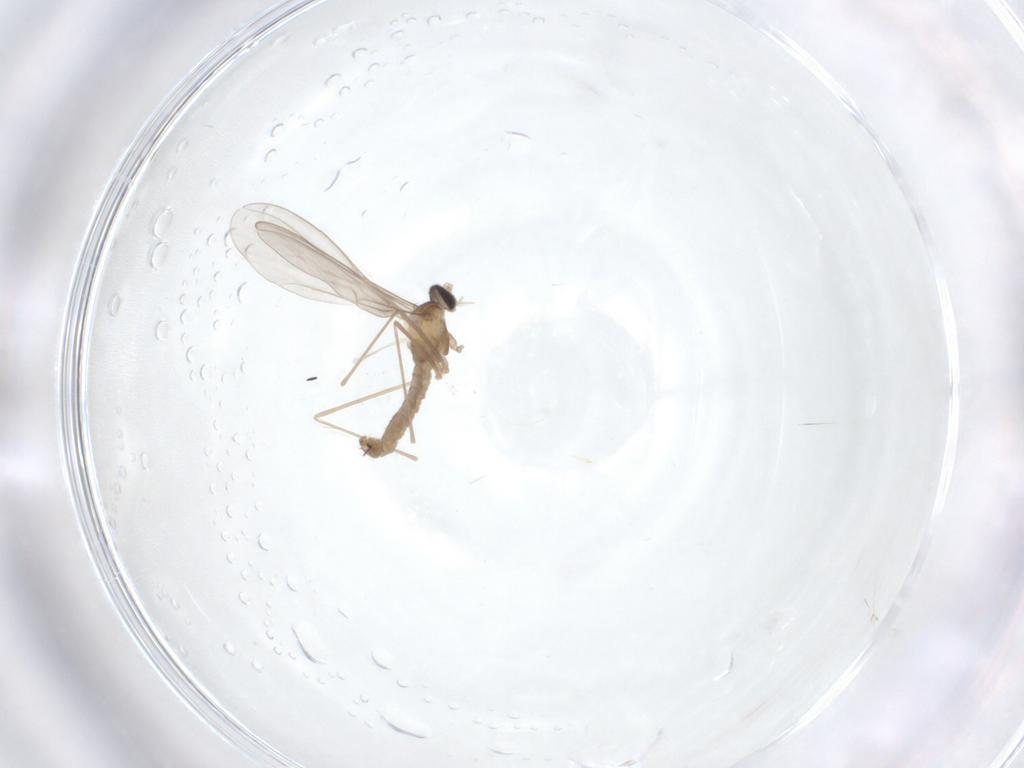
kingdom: Animalia
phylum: Arthropoda
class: Insecta
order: Diptera
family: Cecidomyiidae
